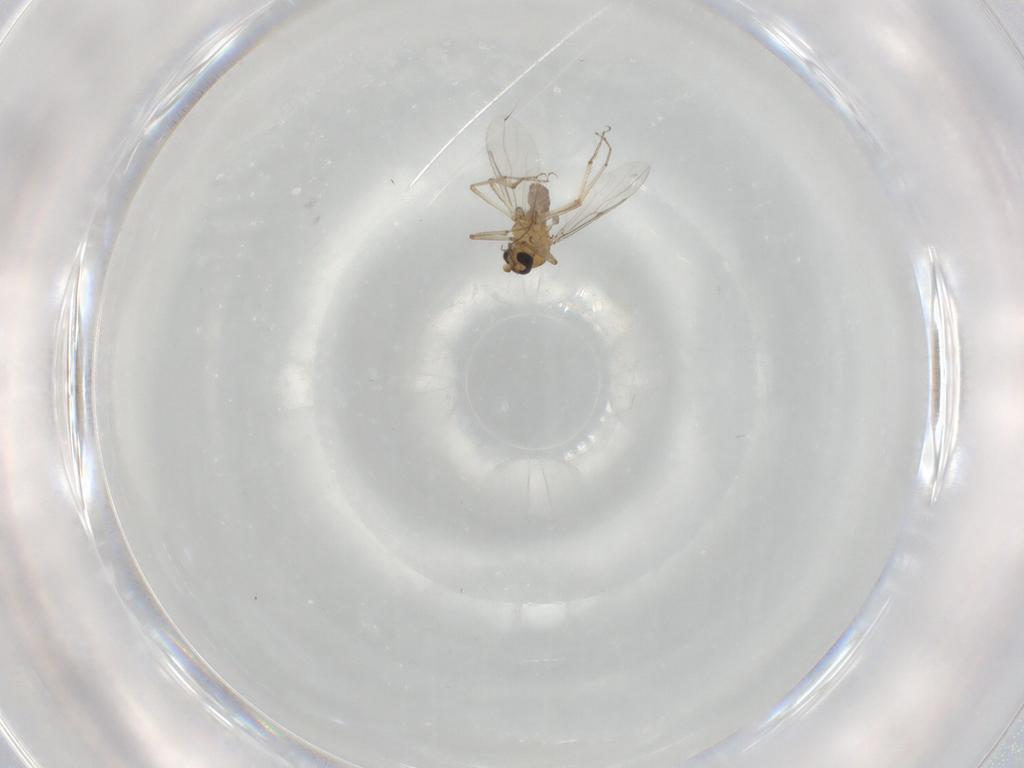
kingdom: Animalia
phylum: Arthropoda
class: Insecta
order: Diptera
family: Ceratopogonidae
